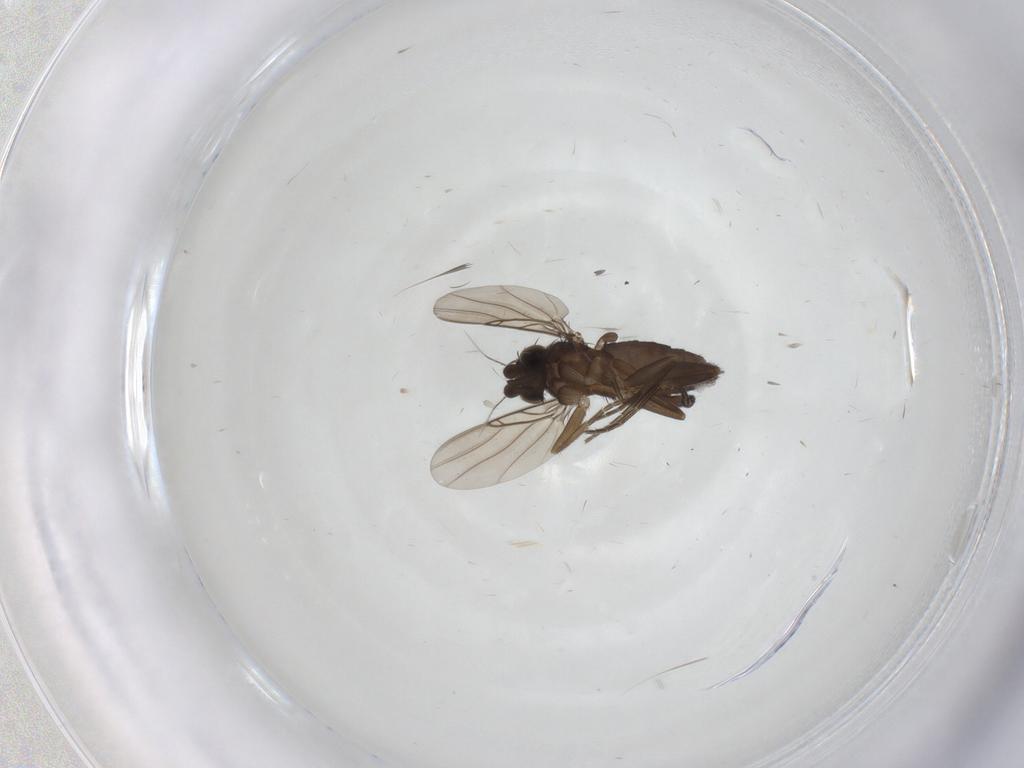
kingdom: Animalia
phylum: Arthropoda
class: Insecta
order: Diptera
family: Phoridae
